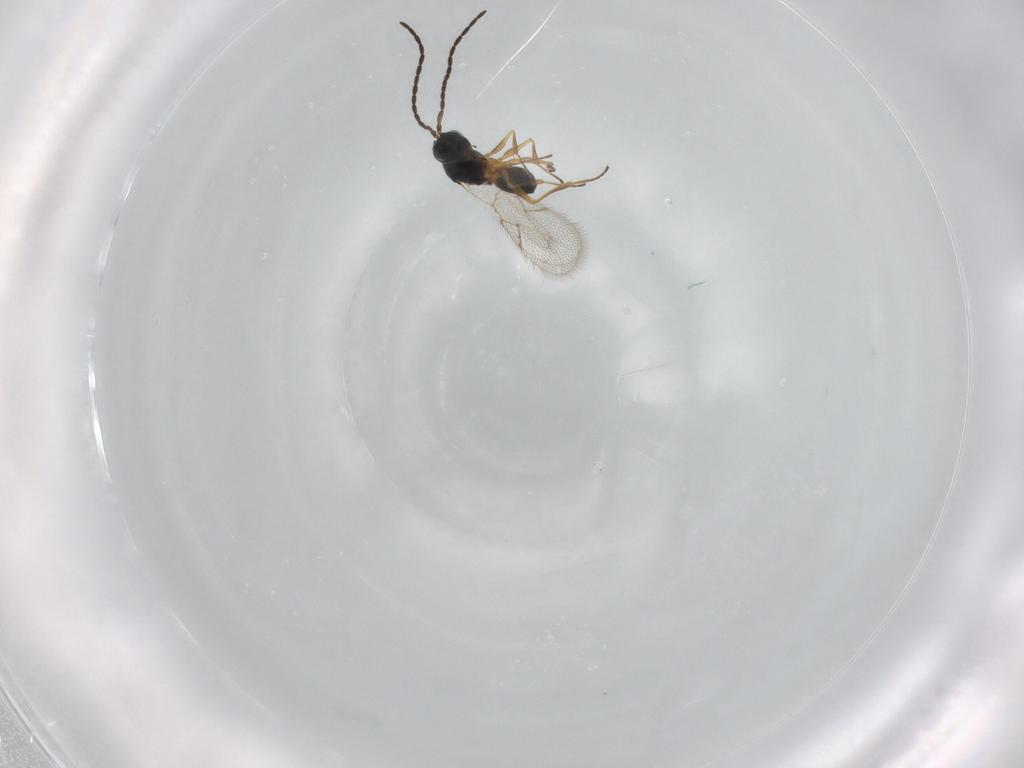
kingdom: Animalia
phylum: Arthropoda
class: Insecta
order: Hymenoptera
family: Figitidae
